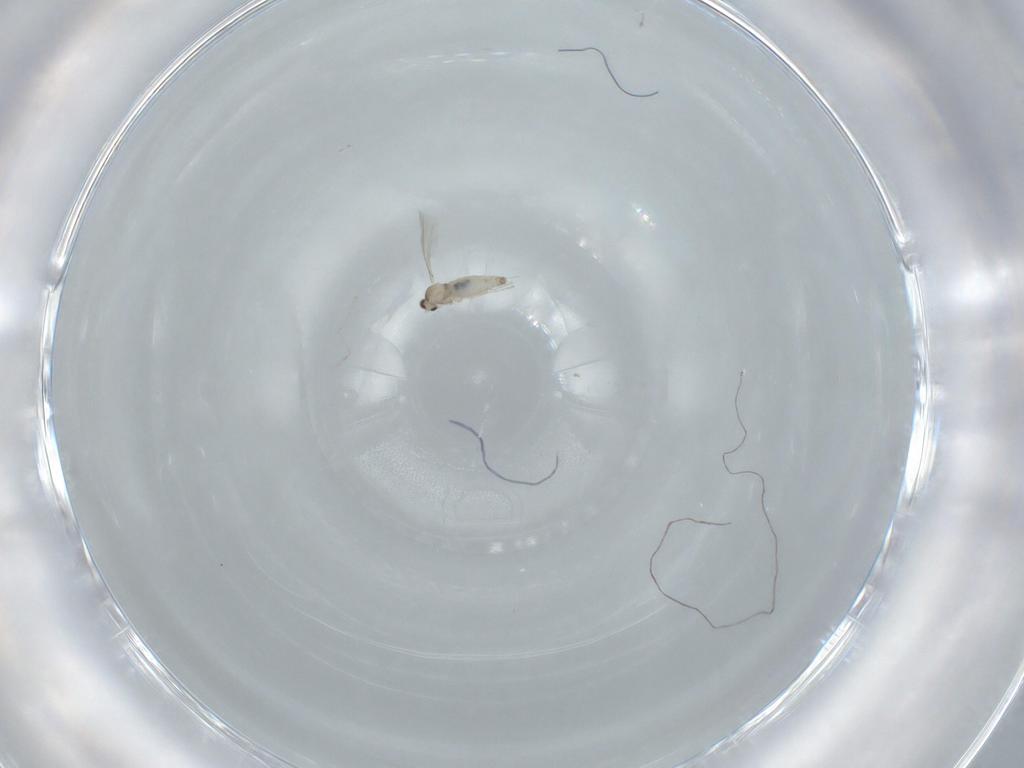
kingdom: Animalia
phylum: Arthropoda
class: Insecta
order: Diptera
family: Cecidomyiidae
